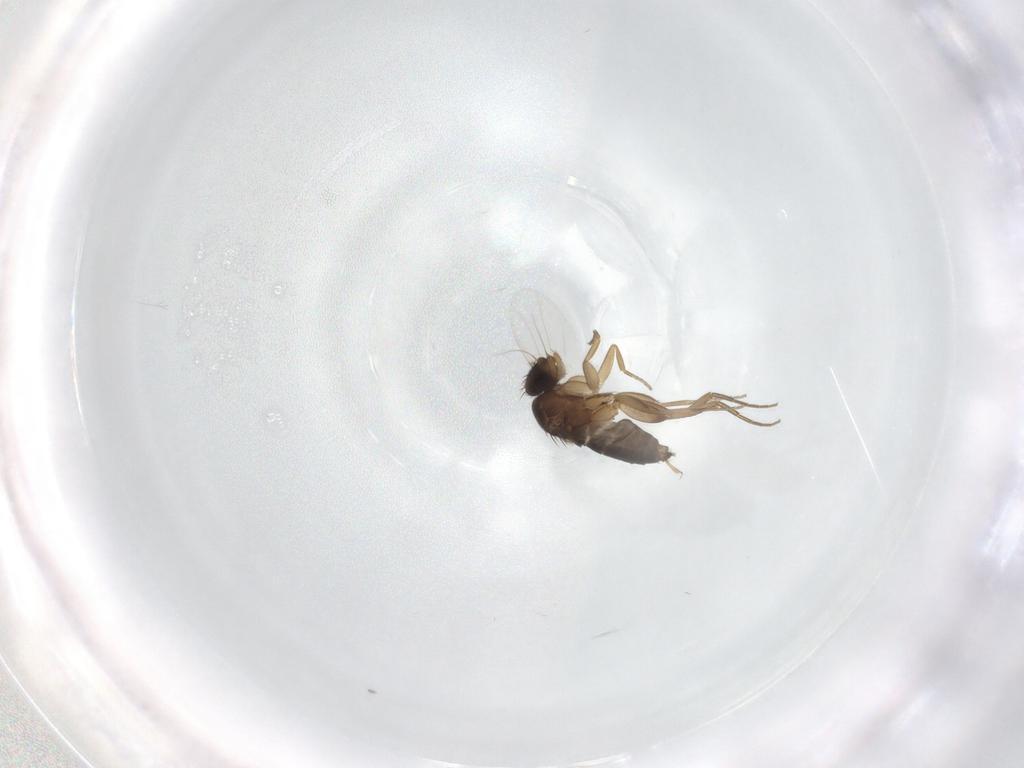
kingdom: Animalia
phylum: Arthropoda
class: Insecta
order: Diptera
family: Phoridae
